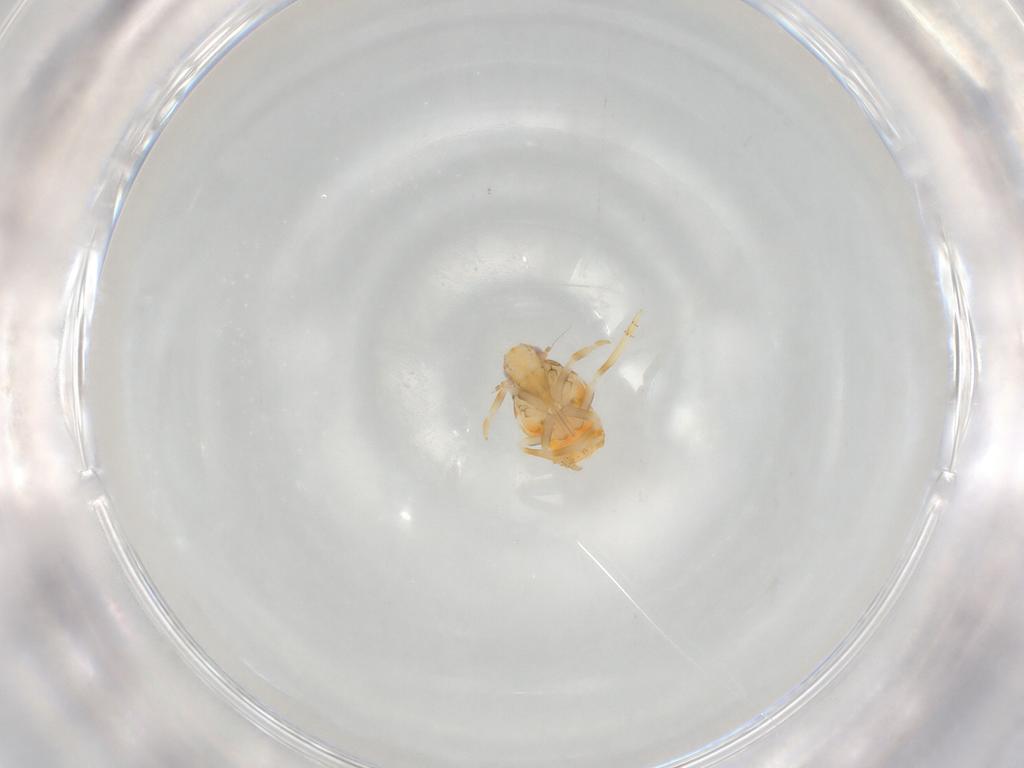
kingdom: Animalia
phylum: Arthropoda
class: Insecta
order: Hemiptera
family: Flatidae
